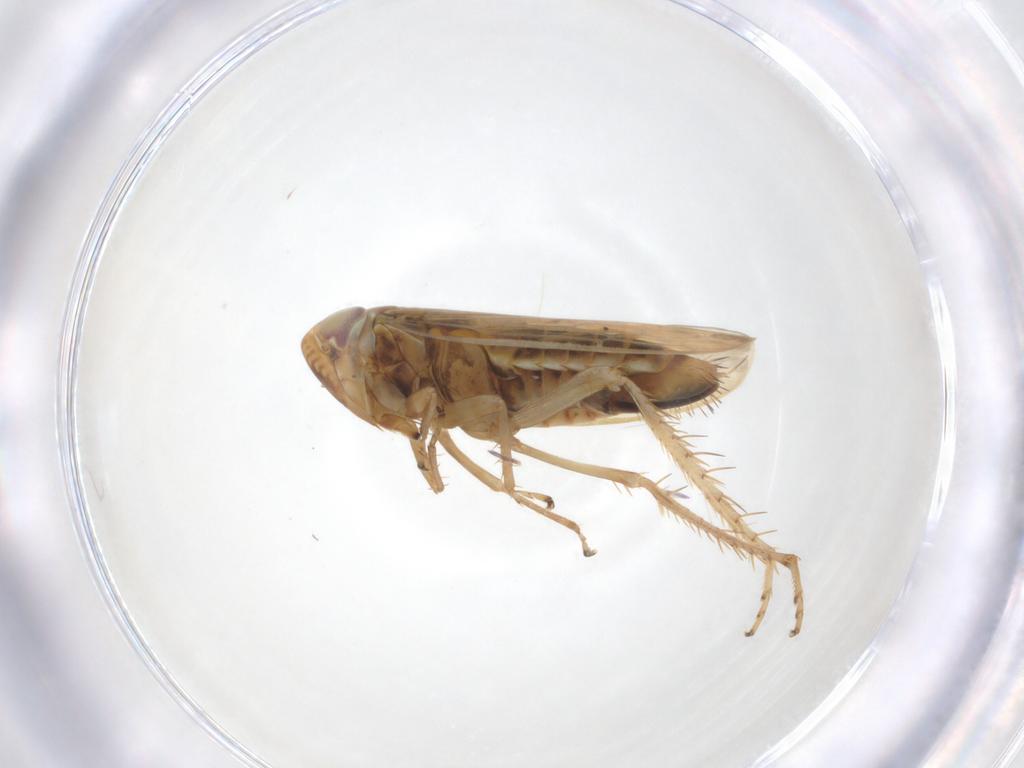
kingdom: Animalia
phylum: Arthropoda
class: Insecta
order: Hemiptera
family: Cicadellidae
